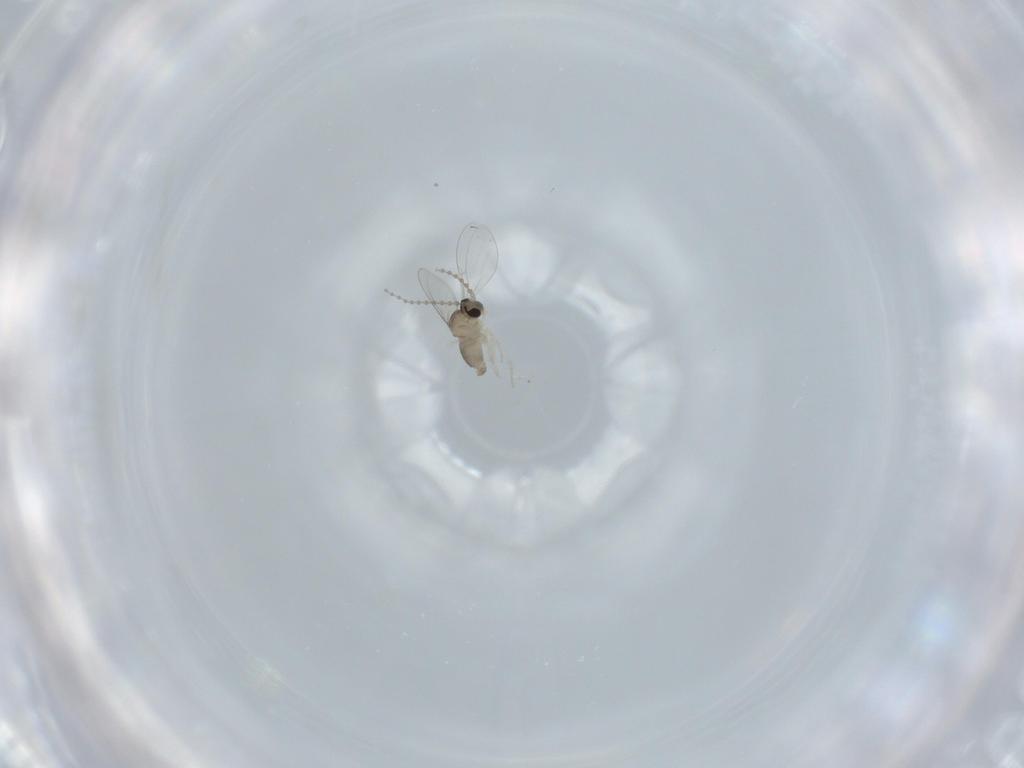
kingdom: Animalia
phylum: Arthropoda
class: Insecta
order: Diptera
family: Cecidomyiidae
